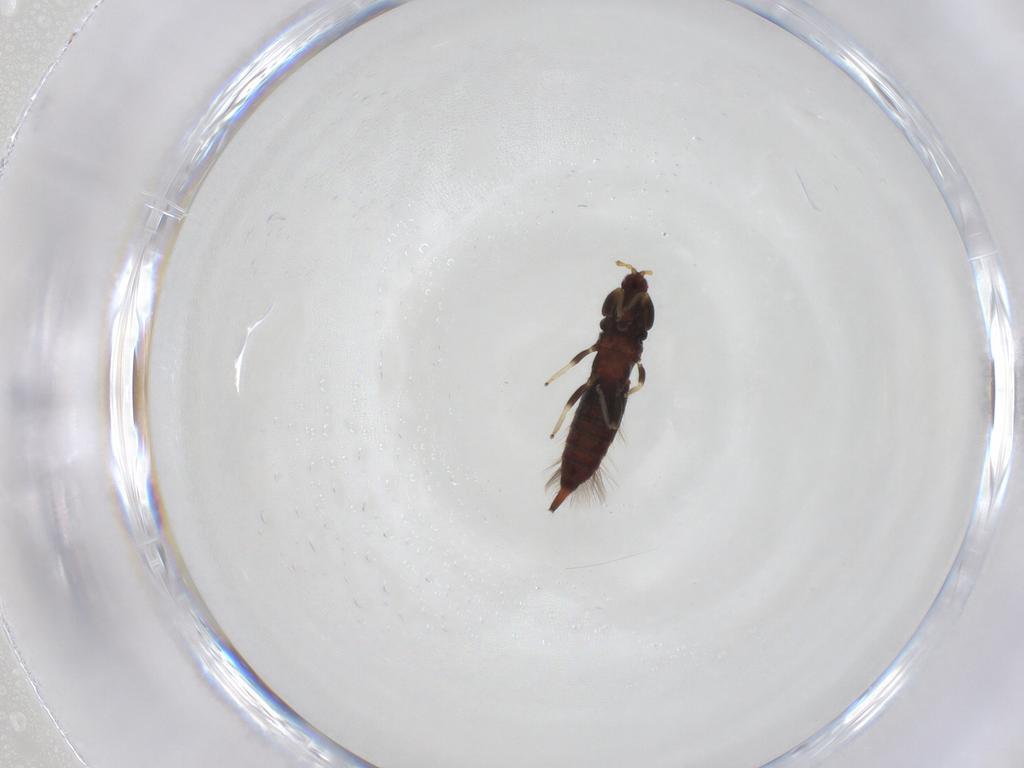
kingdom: Animalia
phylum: Arthropoda
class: Insecta
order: Thysanoptera
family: Phlaeothripidae
